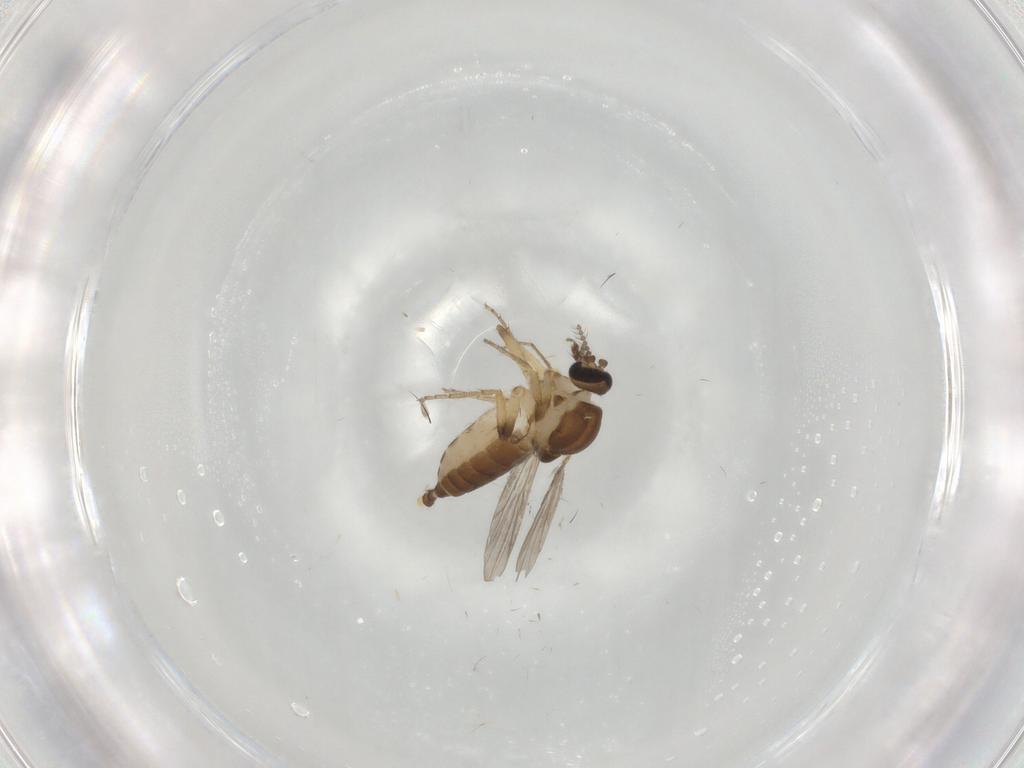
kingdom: Animalia
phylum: Arthropoda
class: Insecta
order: Diptera
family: Ceratopogonidae
